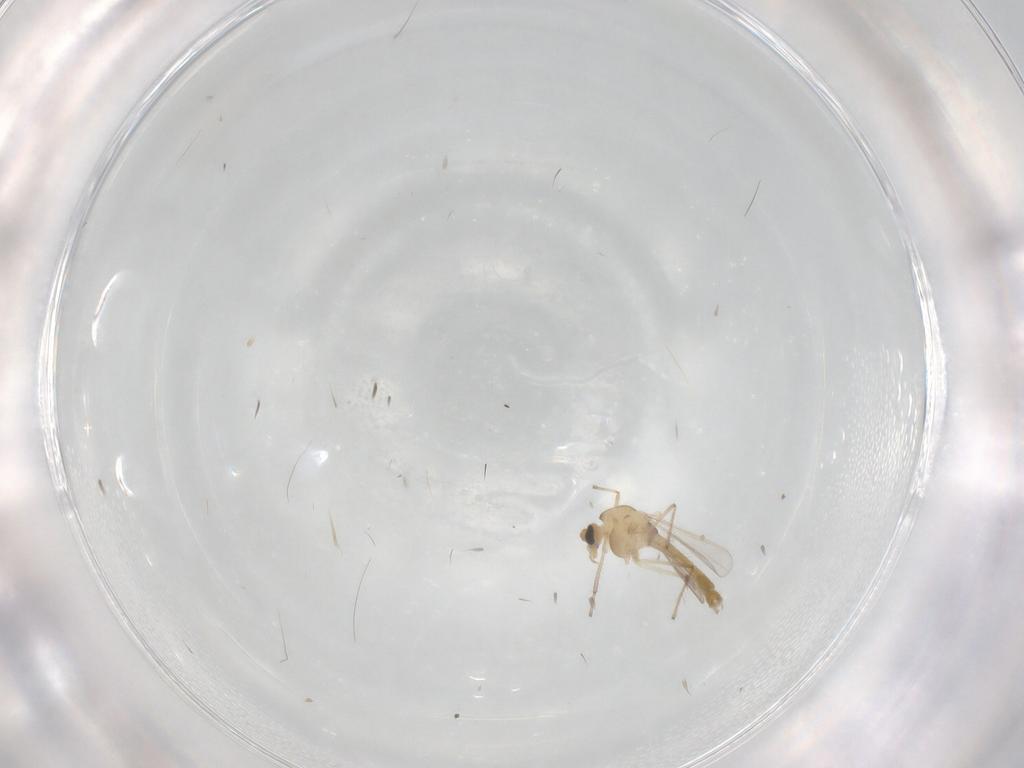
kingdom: Animalia
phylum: Arthropoda
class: Insecta
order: Diptera
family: Chironomidae
